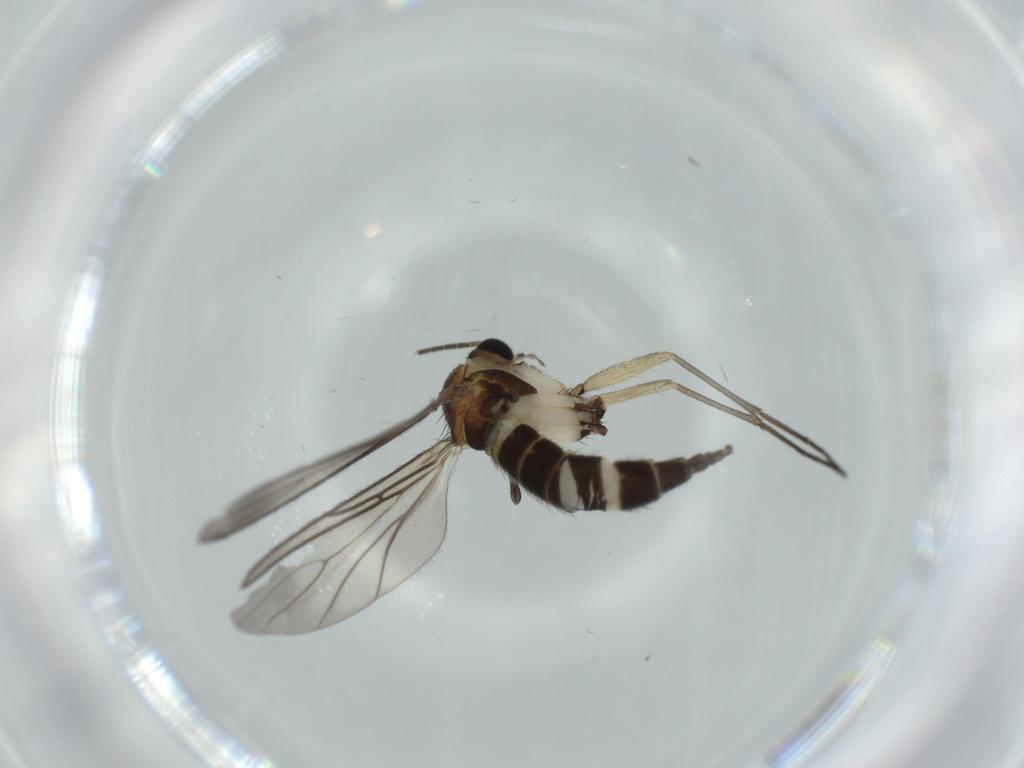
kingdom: Animalia
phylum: Arthropoda
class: Insecta
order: Diptera
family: Sciaridae
